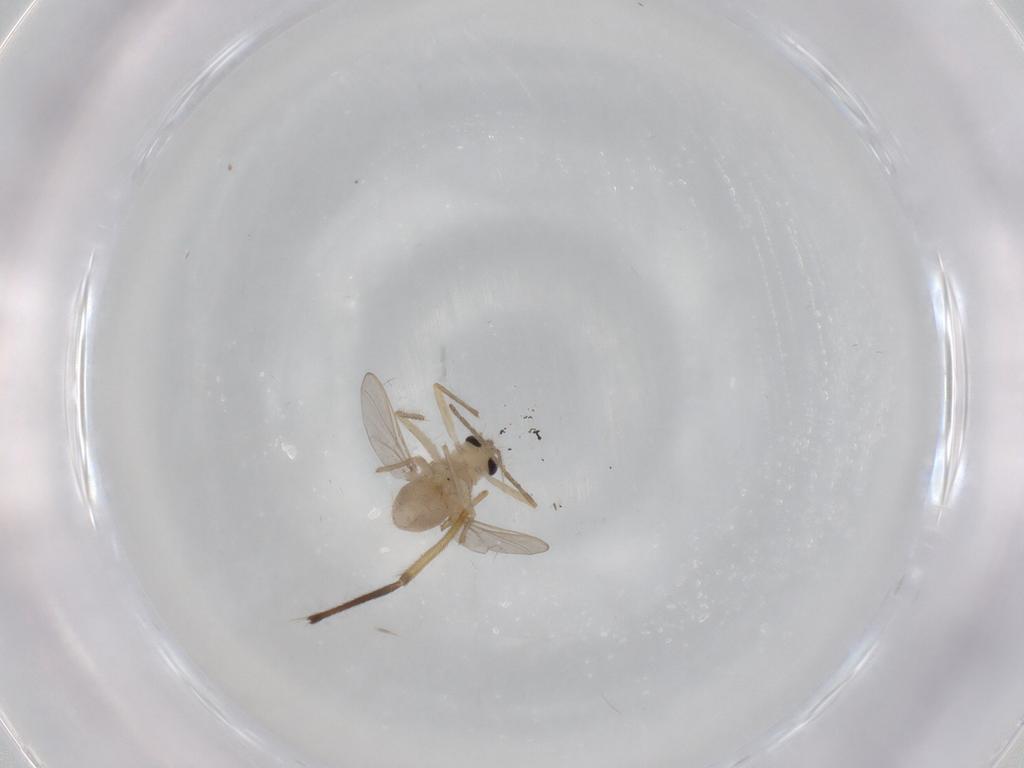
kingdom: Animalia
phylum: Arthropoda
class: Insecta
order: Diptera
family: Chironomidae
